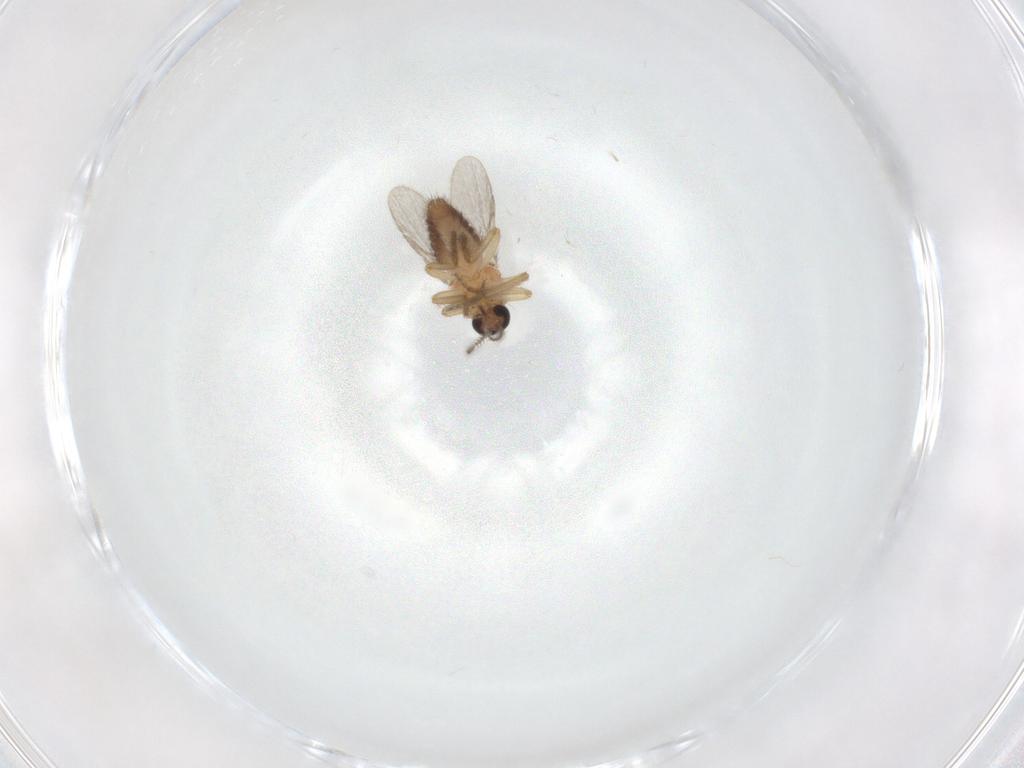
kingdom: Animalia
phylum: Arthropoda
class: Insecta
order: Diptera
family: Ceratopogonidae
